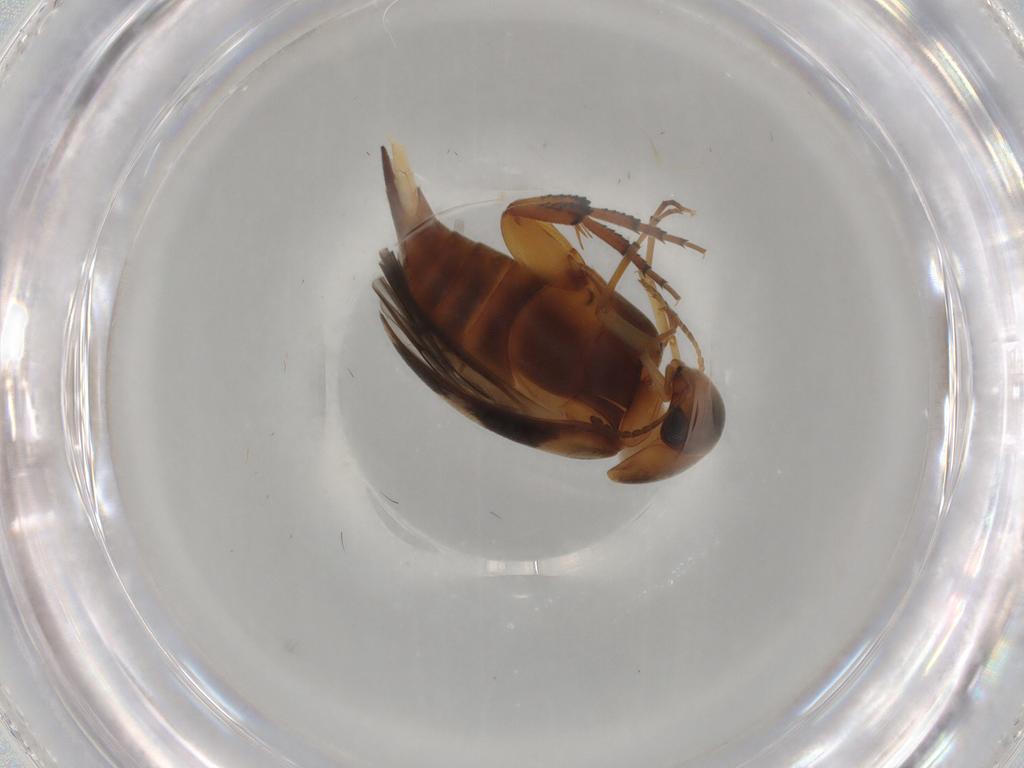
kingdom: Animalia
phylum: Arthropoda
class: Insecta
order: Coleoptera
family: Mordellidae
